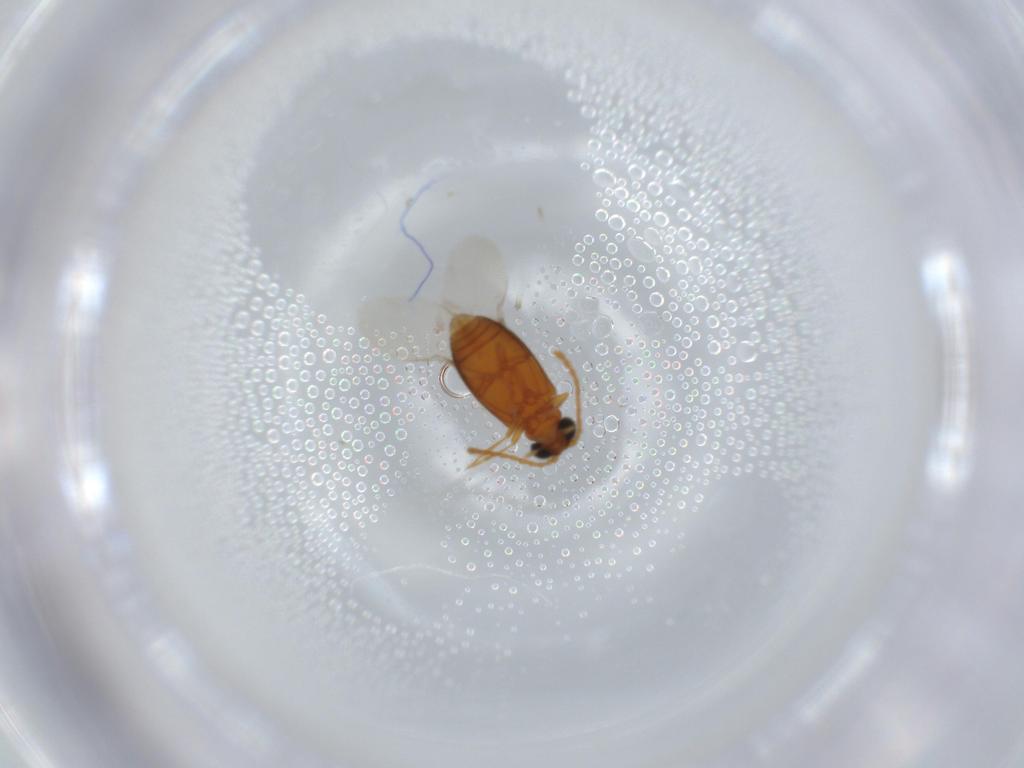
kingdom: Animalia
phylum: Arthropoda
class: Insecta
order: Coleoptera
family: Aderidae
